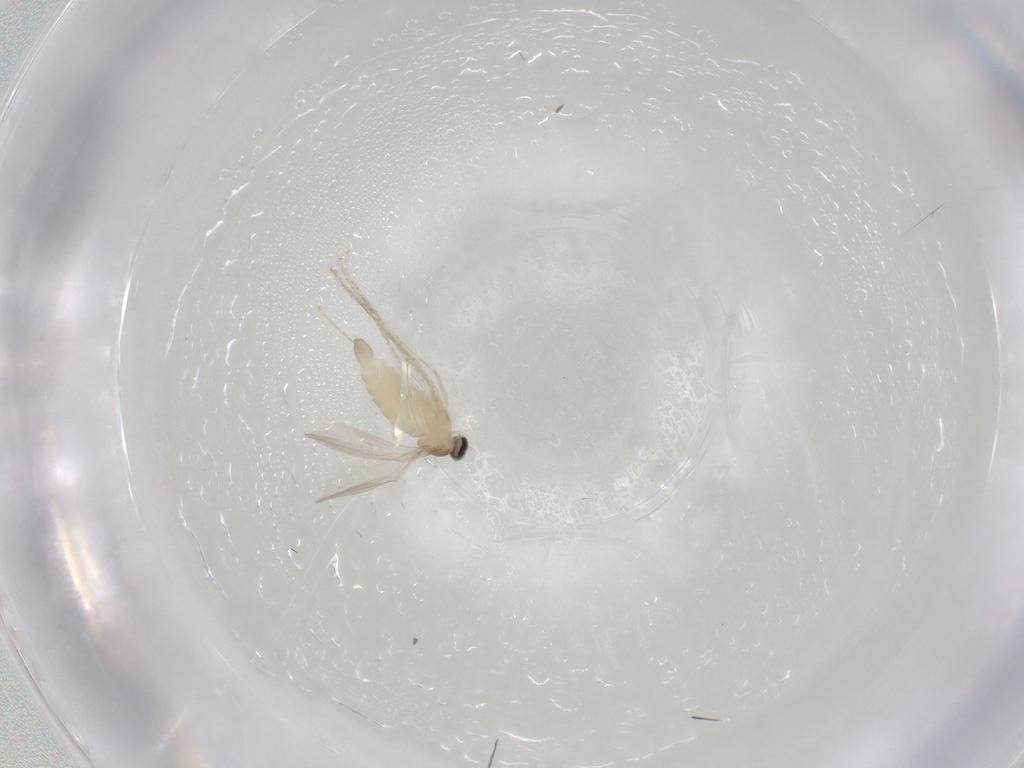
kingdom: Animalia
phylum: Arthropoda
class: Insecta
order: Diptera
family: Cecidomyiidae
